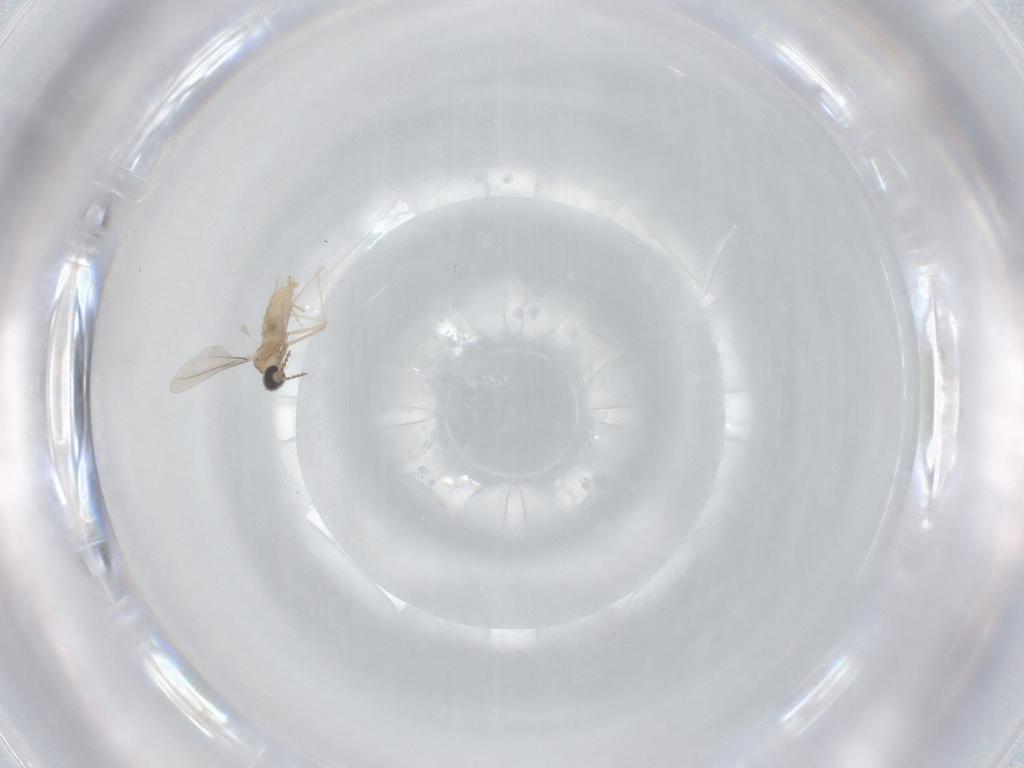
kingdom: Animalia
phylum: Arthropoda
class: Insecta
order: Diptera
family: Cecidomyiidae
